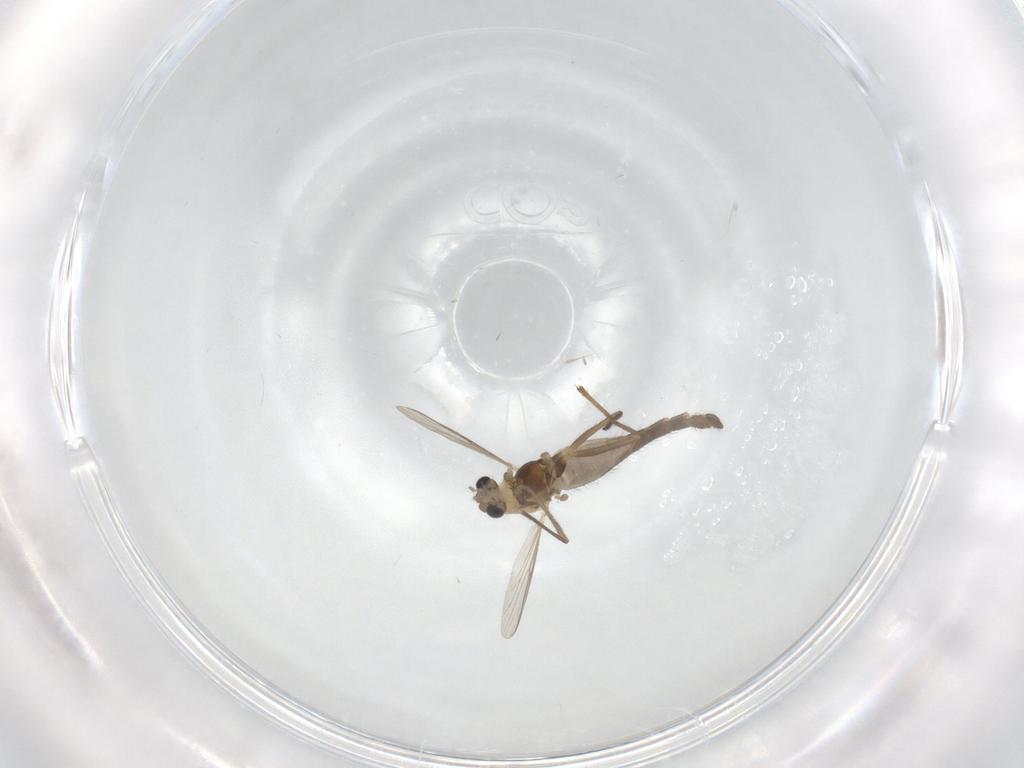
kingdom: Animalia
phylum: Arthropoda
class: Insecta
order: Diptera
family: Chironomidae
